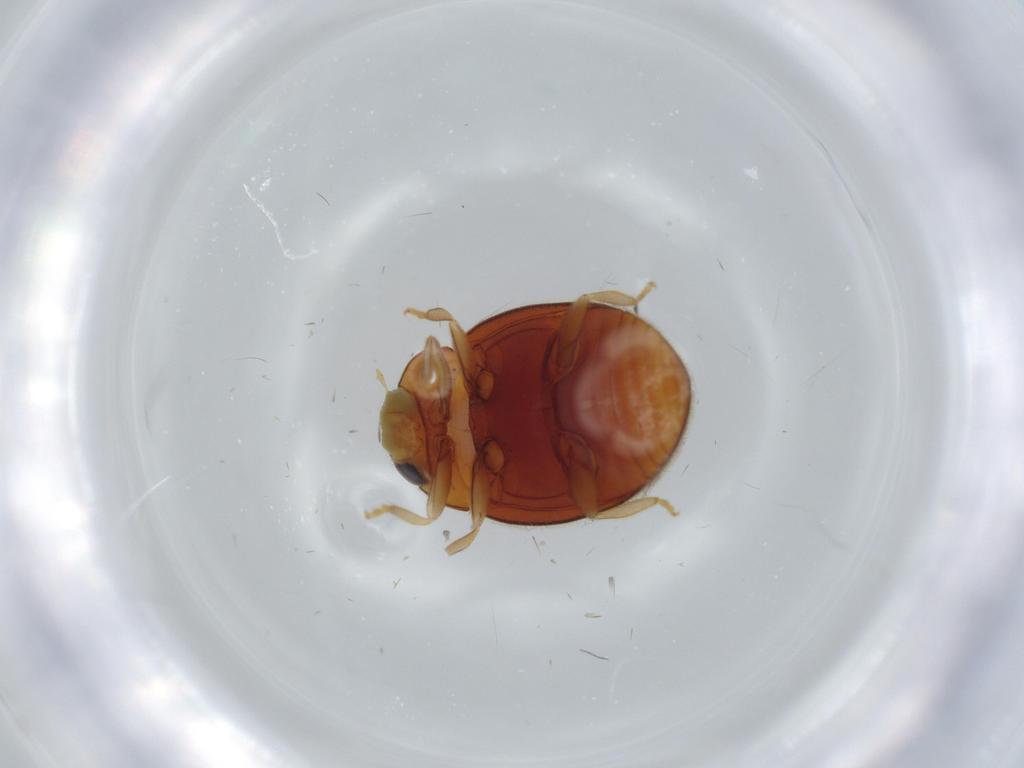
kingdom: Animalia
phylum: Arthropoda
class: Insecta
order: Coleoptera
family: Coccinellidae
